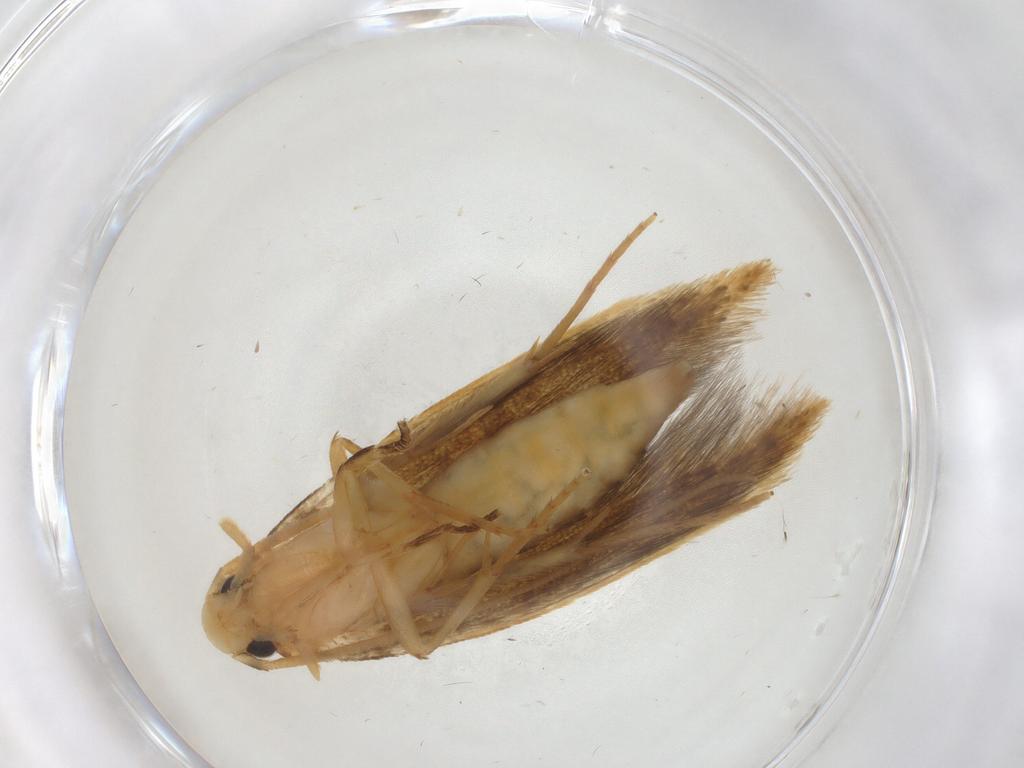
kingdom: Animalia
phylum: Arthropoda
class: Insecta
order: Lepidoptera
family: Tineidae
